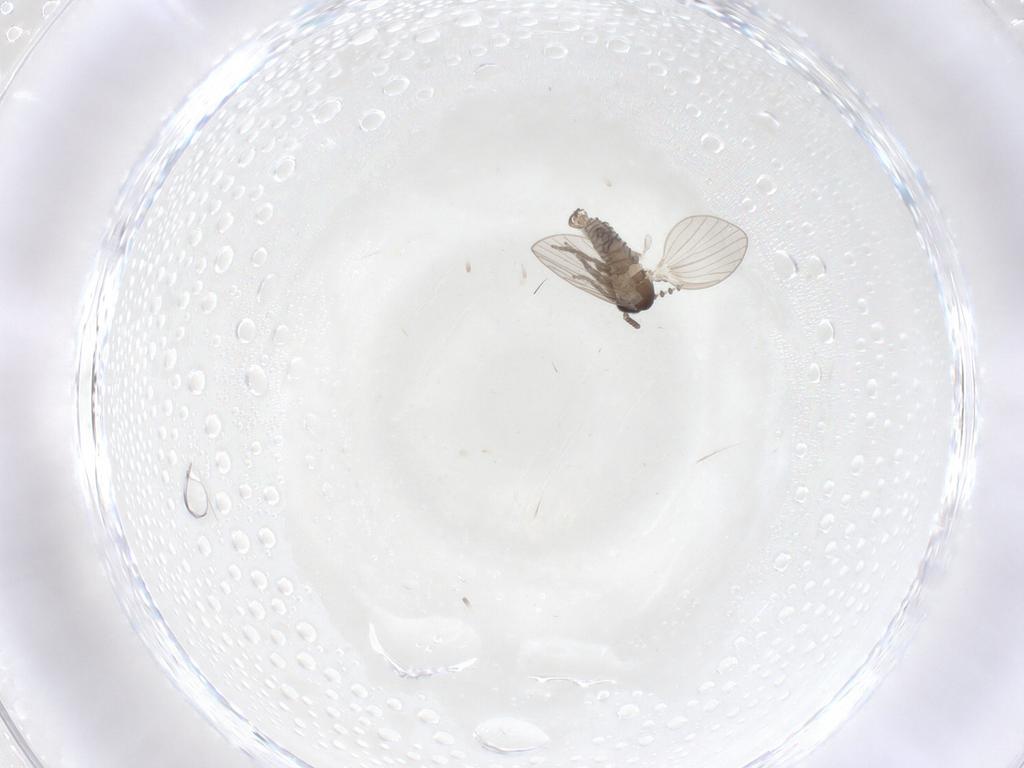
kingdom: Animalia
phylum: Arthropoda
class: Insecta
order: Diptera
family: Psychodidae
